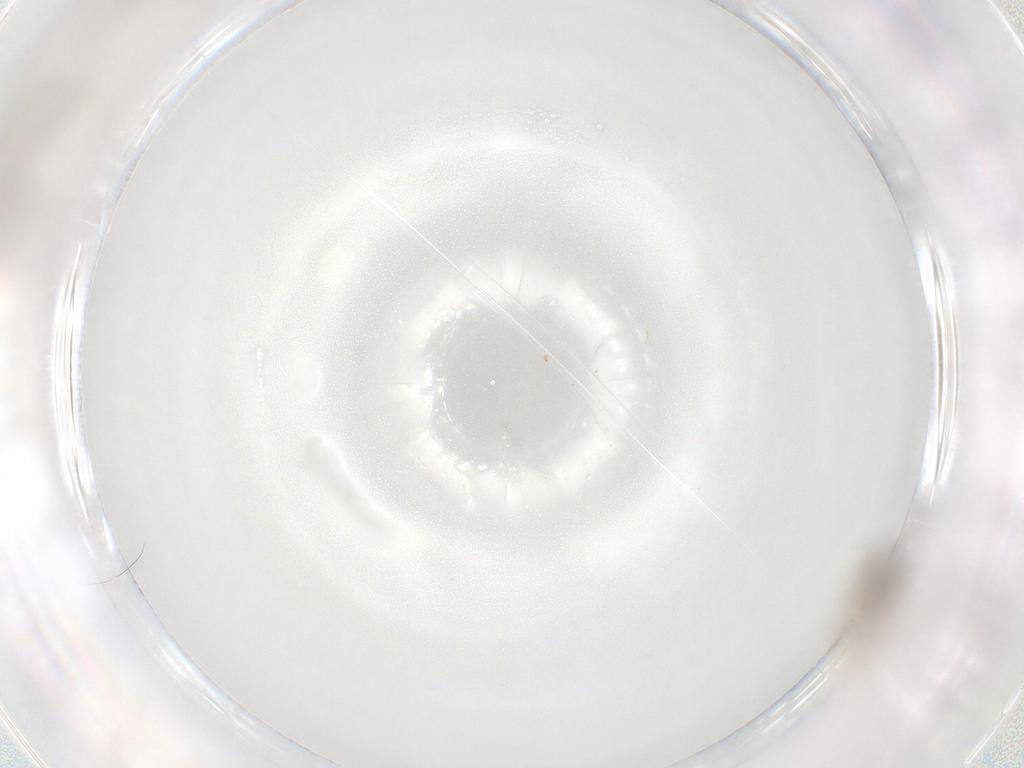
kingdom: Animalia
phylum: Arthropoda
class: Insecta
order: Diptera
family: Cecidomyiidae
